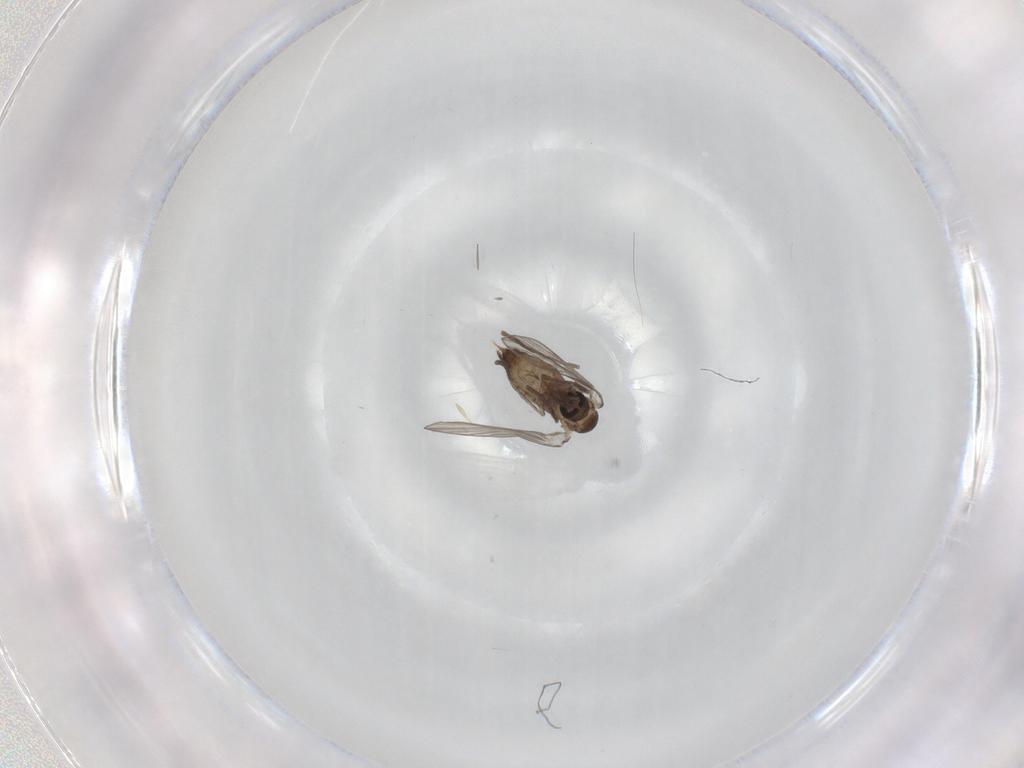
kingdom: Animalia
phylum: Arthropoda
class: Insecta
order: Diptera
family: Psychodidae
